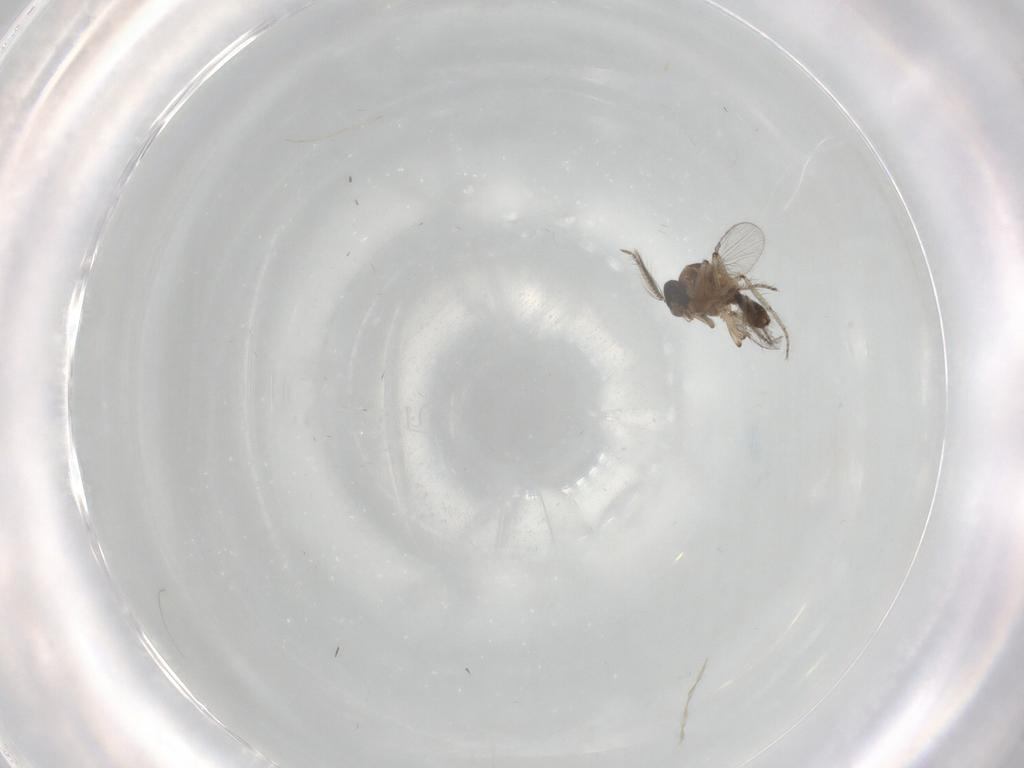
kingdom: Animalia
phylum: Arthropoda
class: Insecta
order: Diptera
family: Ceratopogonidae
